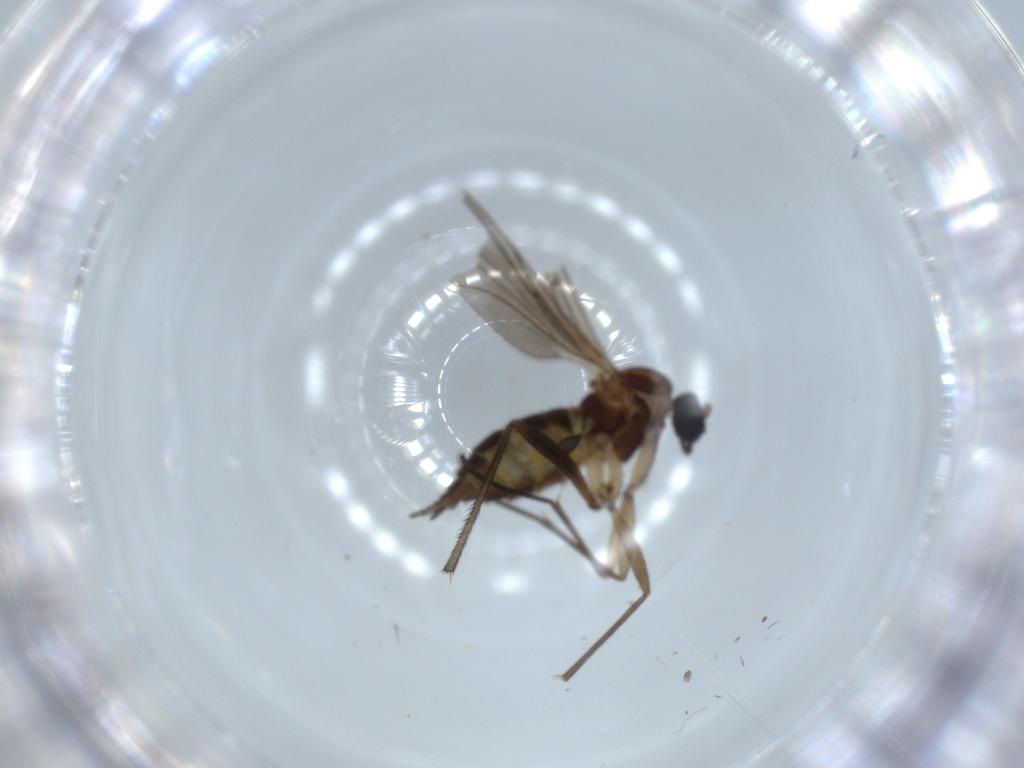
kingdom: Animalia
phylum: Arthropoda
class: Insecta
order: Diptera
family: Sciaridae
